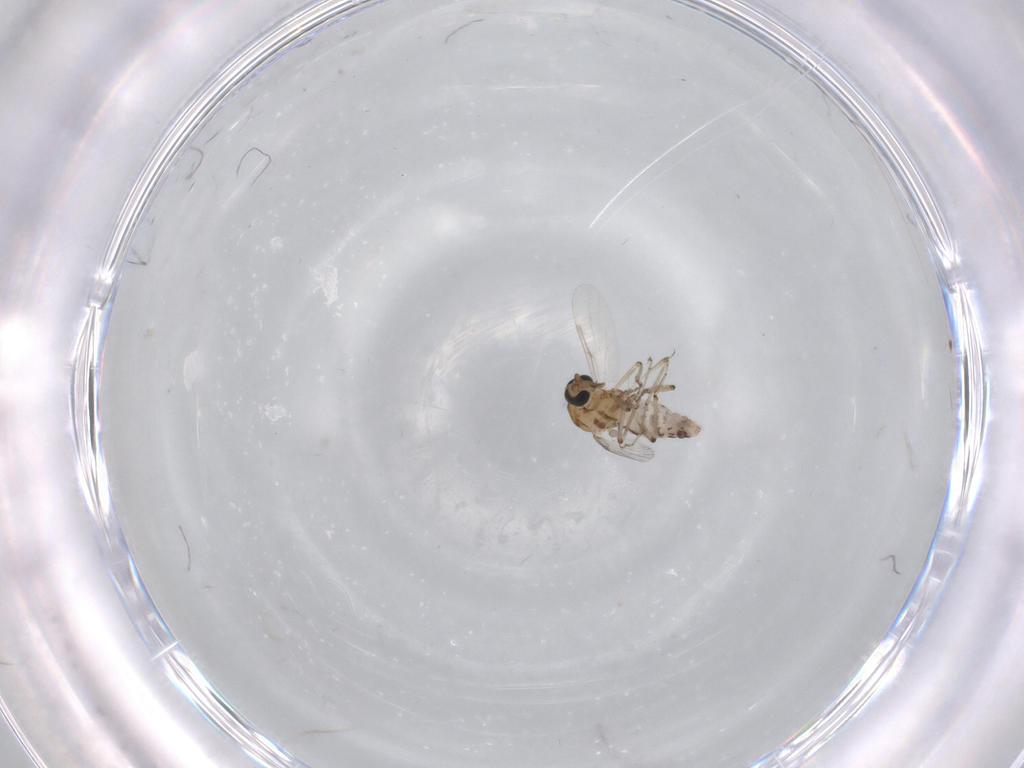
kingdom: Animalia
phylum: Arthropoda
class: Insecta
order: Diptera
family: Ceratopogonidae
